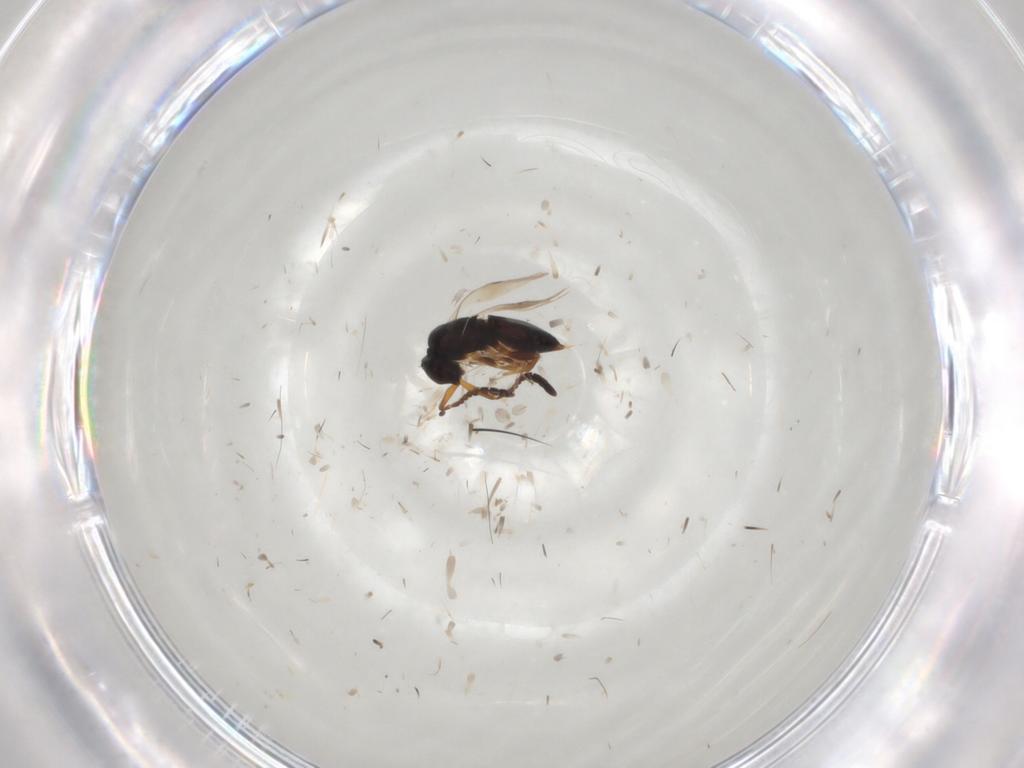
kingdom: Animalia
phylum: Arthropoda
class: Insecta
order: Diptera
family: Glossinidae
